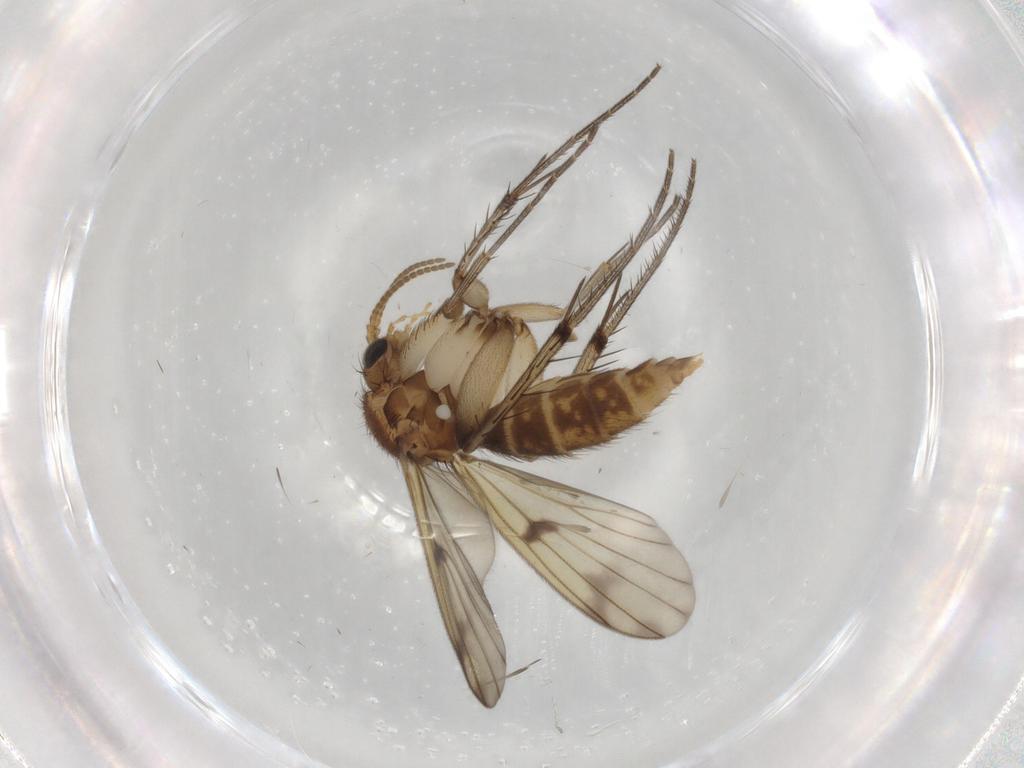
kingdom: Animalia
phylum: Arthropoda
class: Insecta
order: Diptera
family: Mycetophilidae
